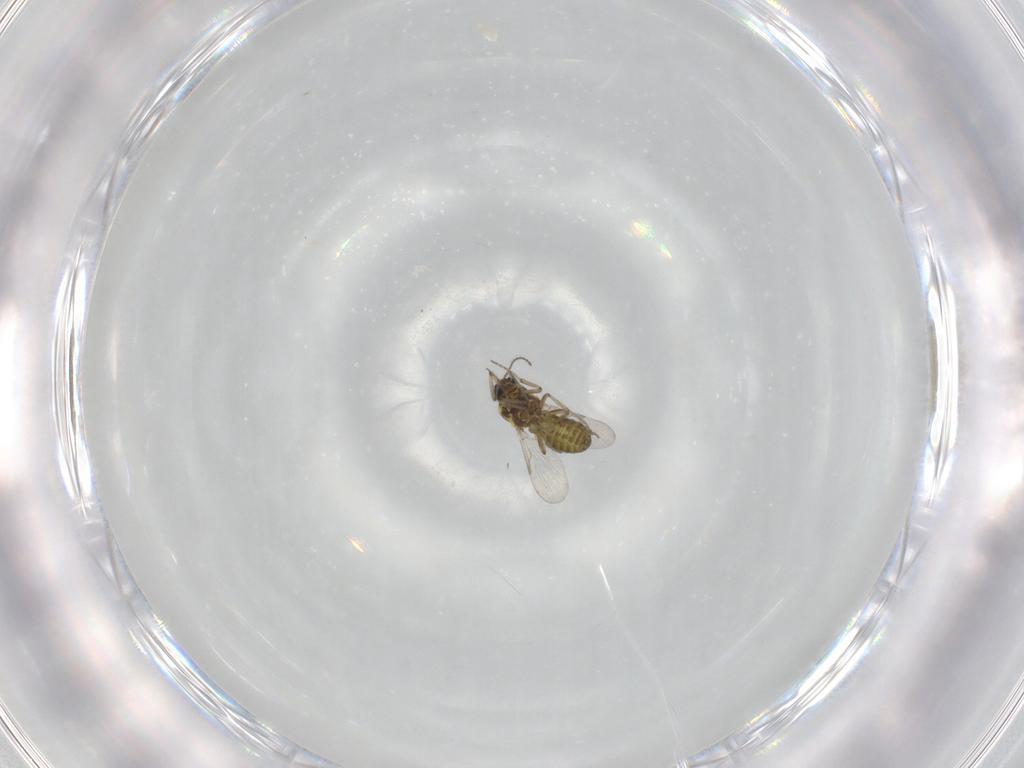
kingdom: Animalia
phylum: Arthropoda
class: Insecta
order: Diptera
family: Ceratopogonidae
